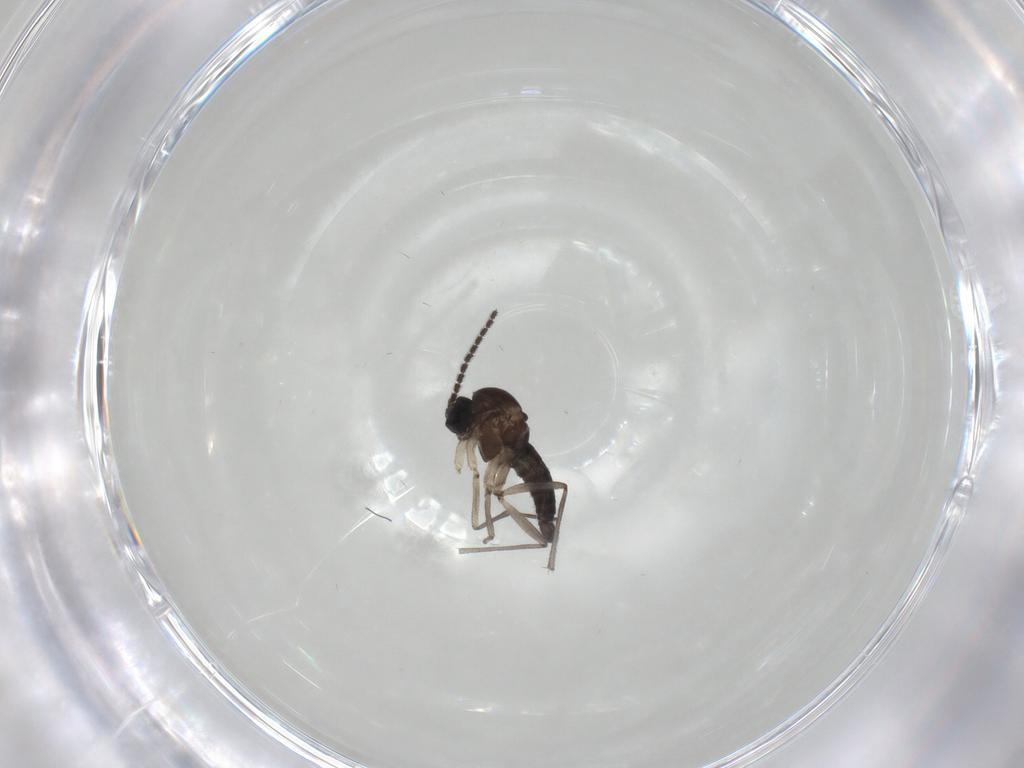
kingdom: Animalia
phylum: Arthropoda
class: Insecta
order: Diptera
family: Sciaridae
